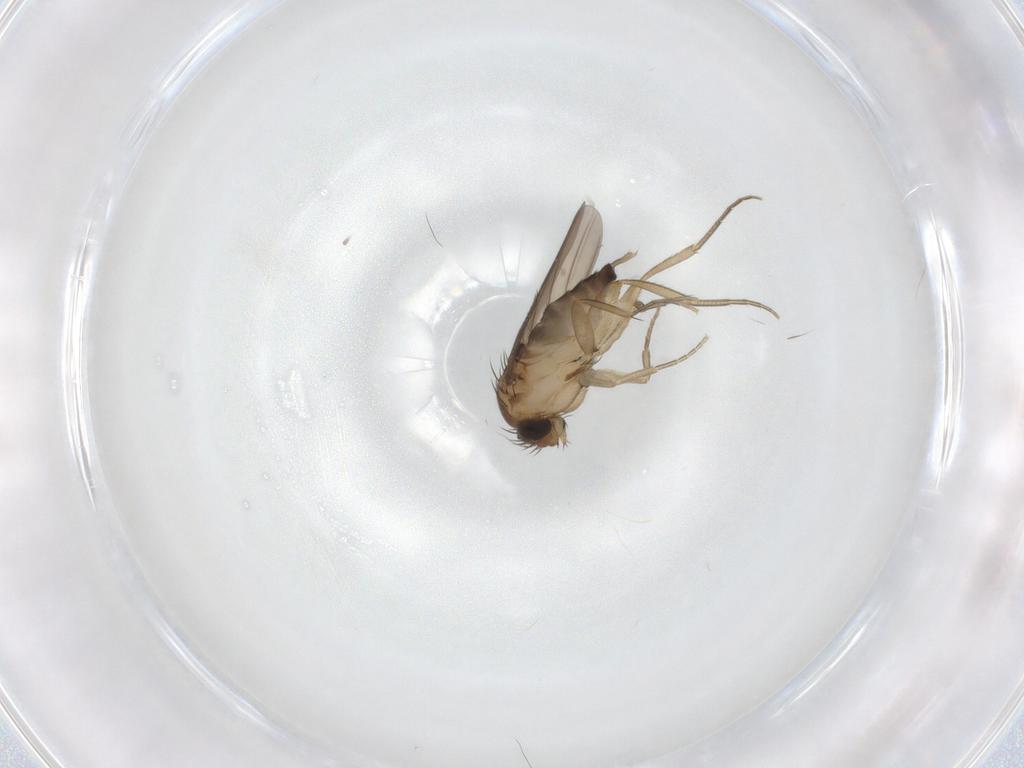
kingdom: Animalia
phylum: Arthropoda
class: Insecta
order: Diptera
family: Phoridae
